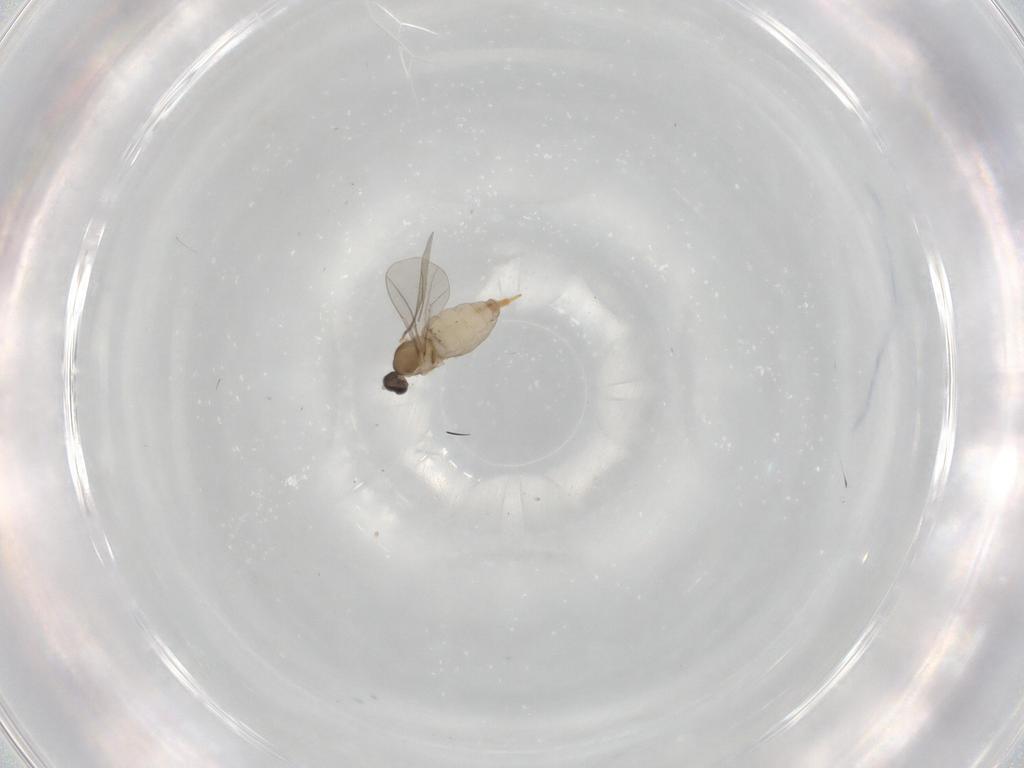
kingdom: Animalia
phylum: Arthropoda
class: Insecta
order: Diptera
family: Cecidomyiidae
